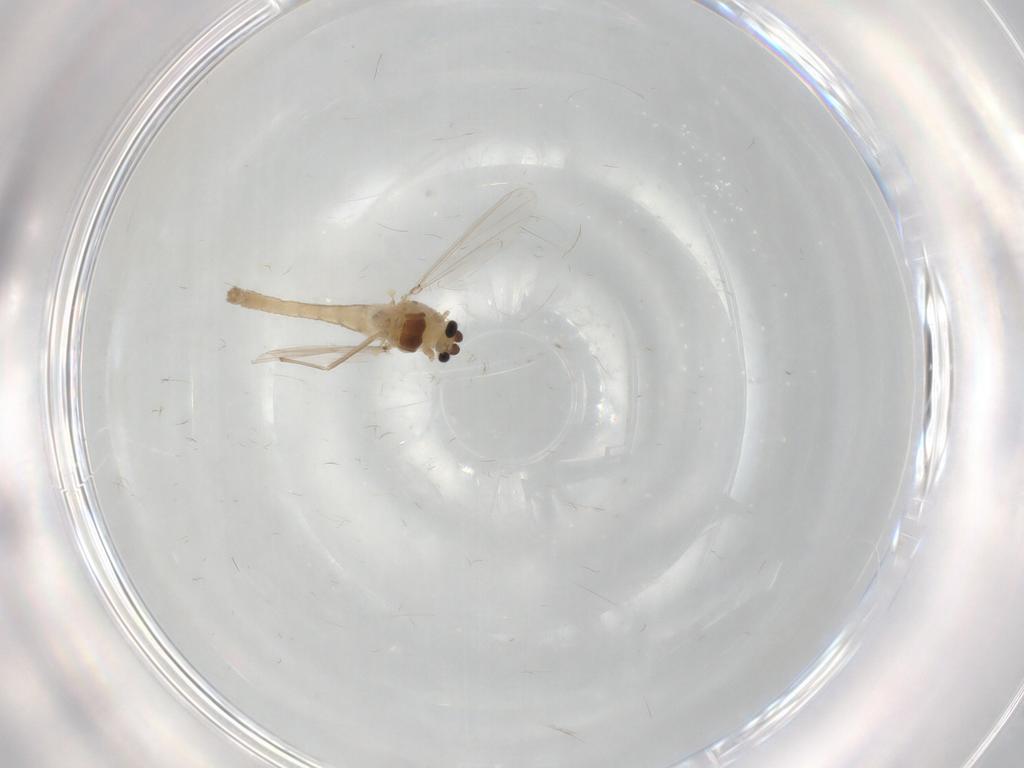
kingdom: Animalia
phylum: Arthropoda
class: Insecta
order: Diptera
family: Chironomidae
